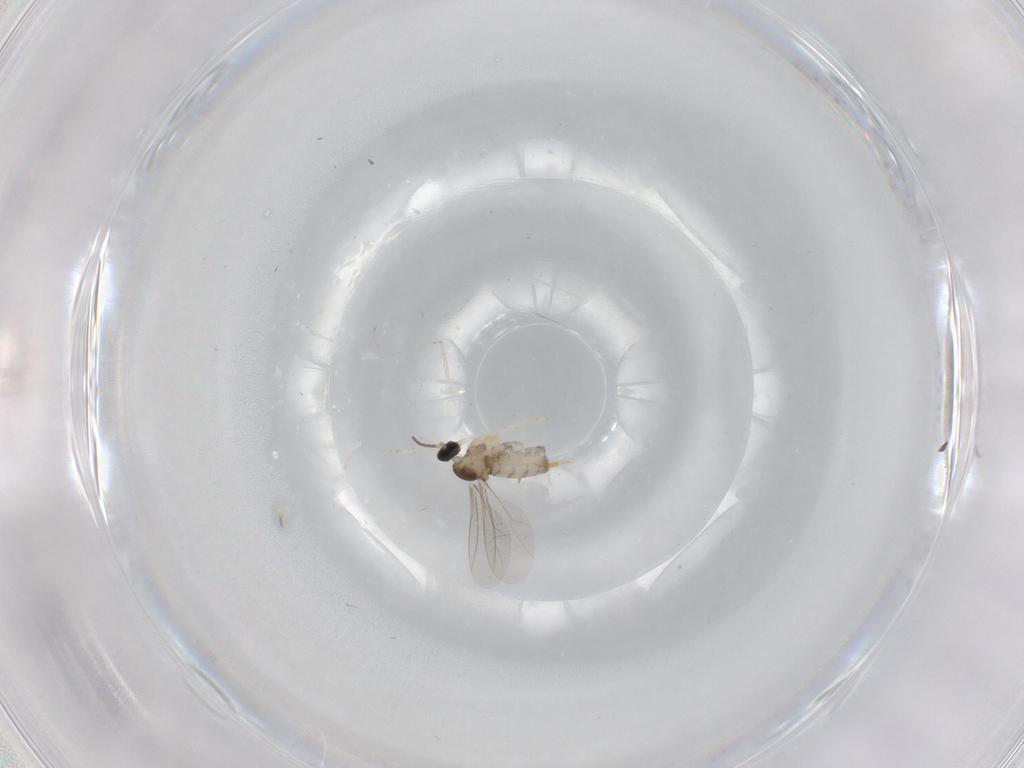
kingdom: Animalia
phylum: Arthropoda
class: Insecta
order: Diptera
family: Cecidomyiidae
